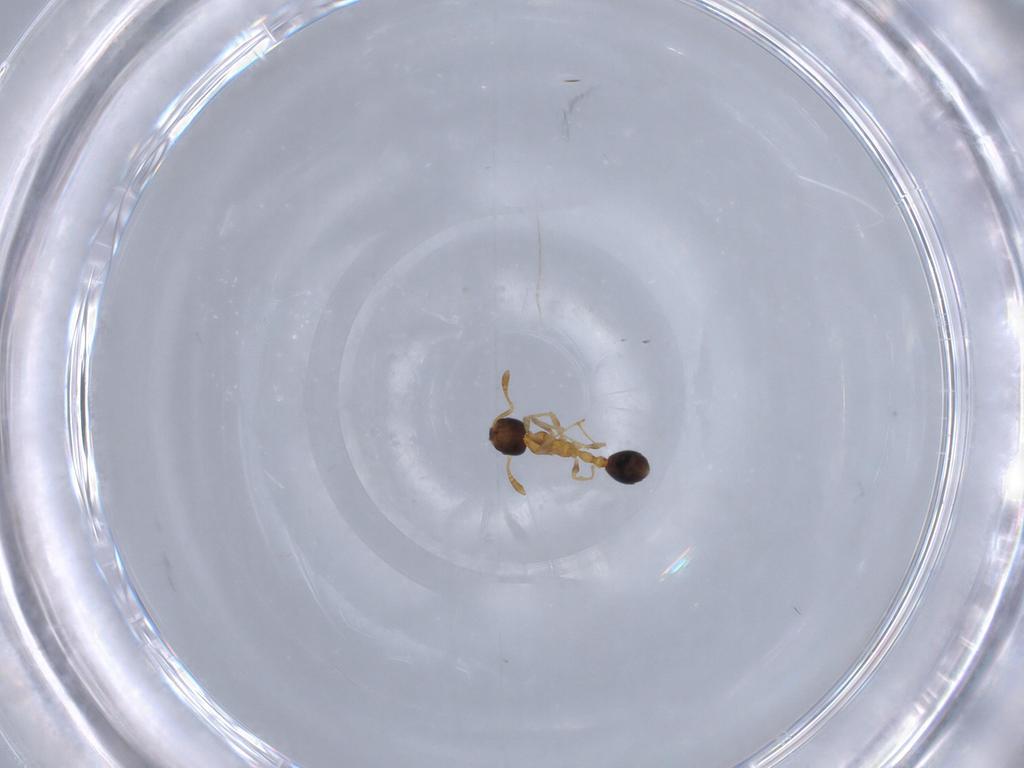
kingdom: Animalia
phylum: Arthropoda
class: Insecta
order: Hymenoptera
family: Formicidae
